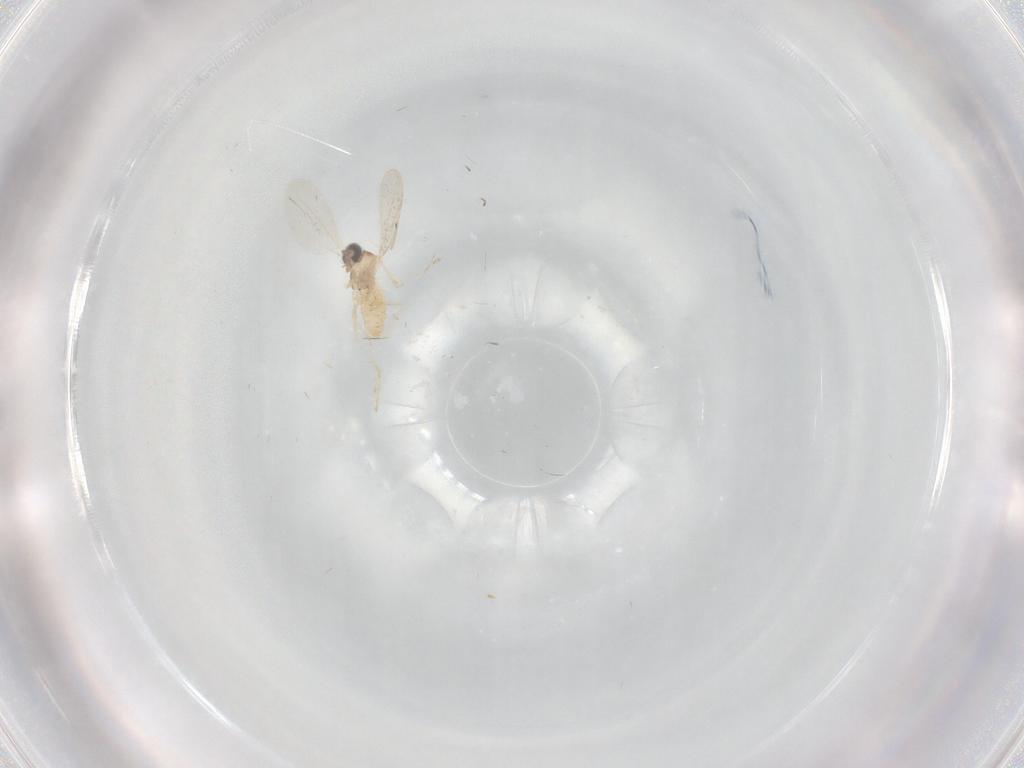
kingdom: Animalia
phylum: Arthropoda
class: Insecta
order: Diptera
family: Ceratopogonidae
